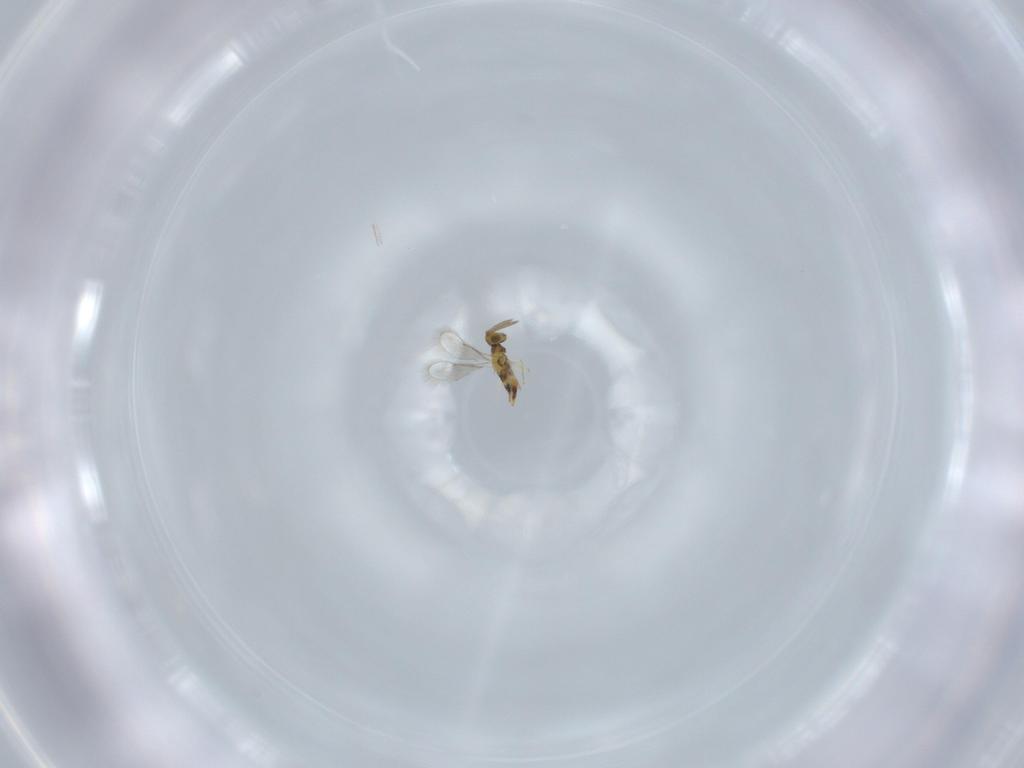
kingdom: Animalia
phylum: Arthropoda
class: Insecta
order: Hymenoptera
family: Aphelinidae
